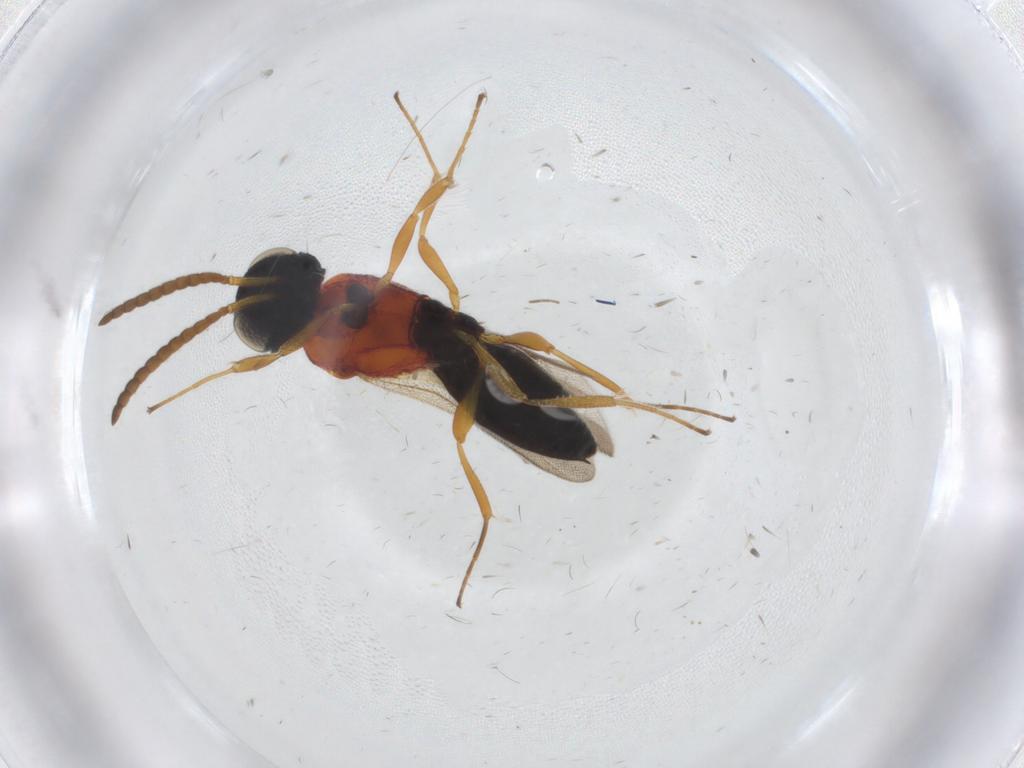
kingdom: Animalia
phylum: Arthropoda
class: Insecta
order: Hymenoptera
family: Scelionidae
